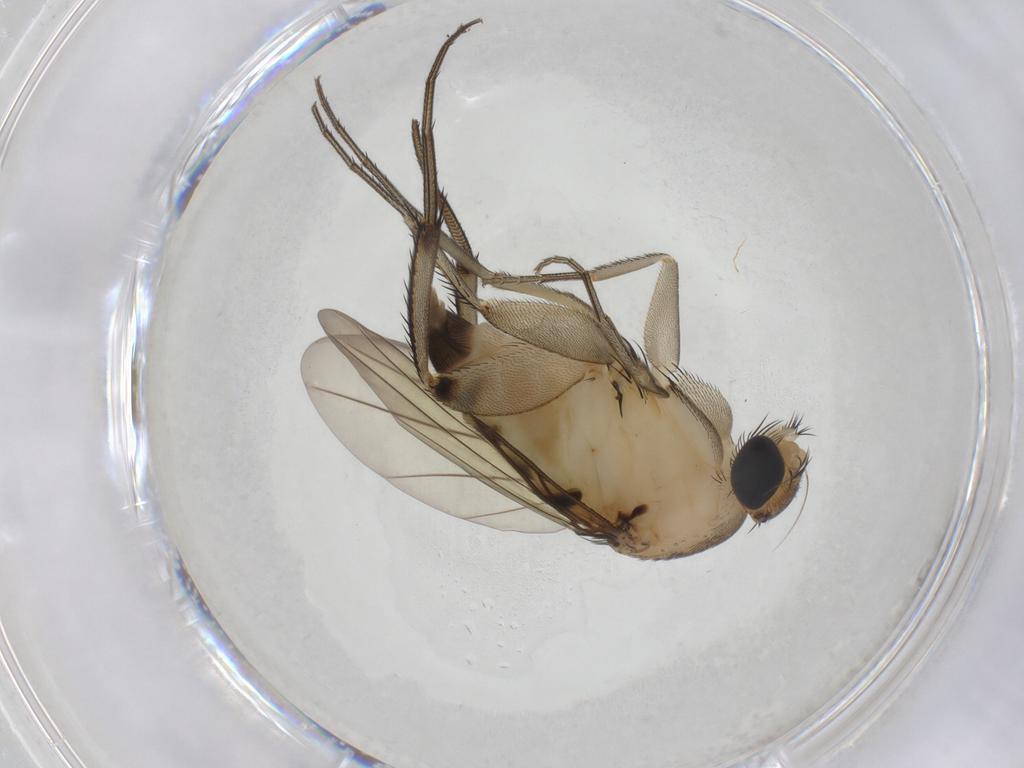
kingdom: Animalia
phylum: Arthropoda
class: Insecta
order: Diptera
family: Phoridae
